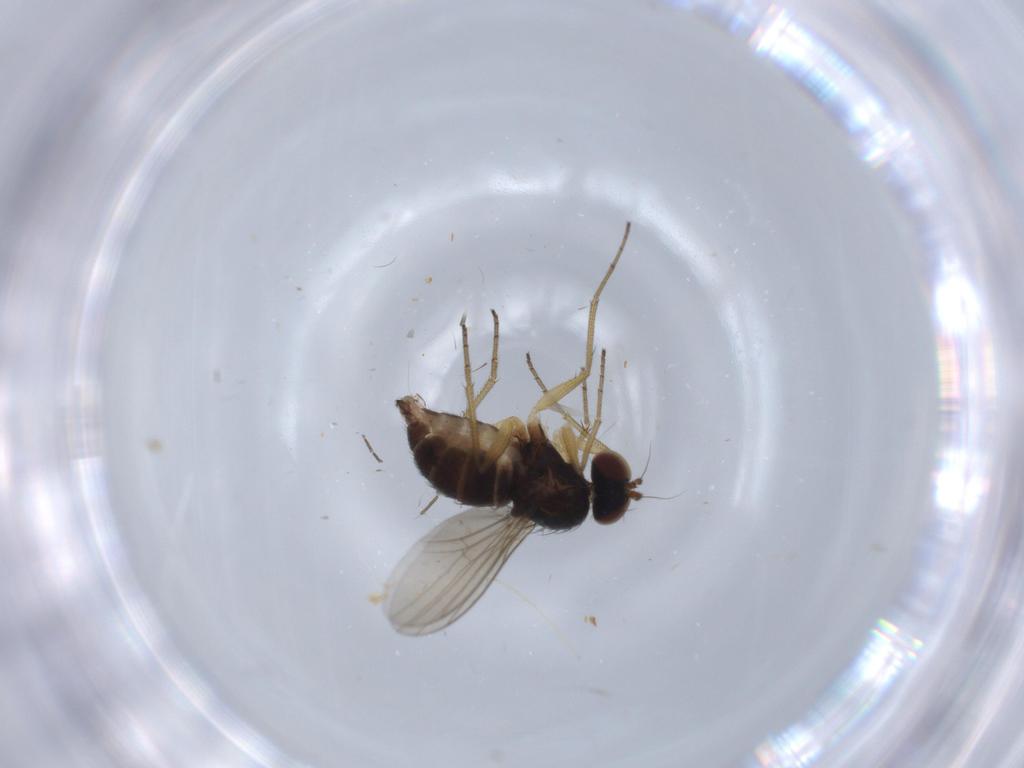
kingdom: Animalia
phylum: Arthropoda
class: Insecta
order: Diptera
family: Dolichopodidae
